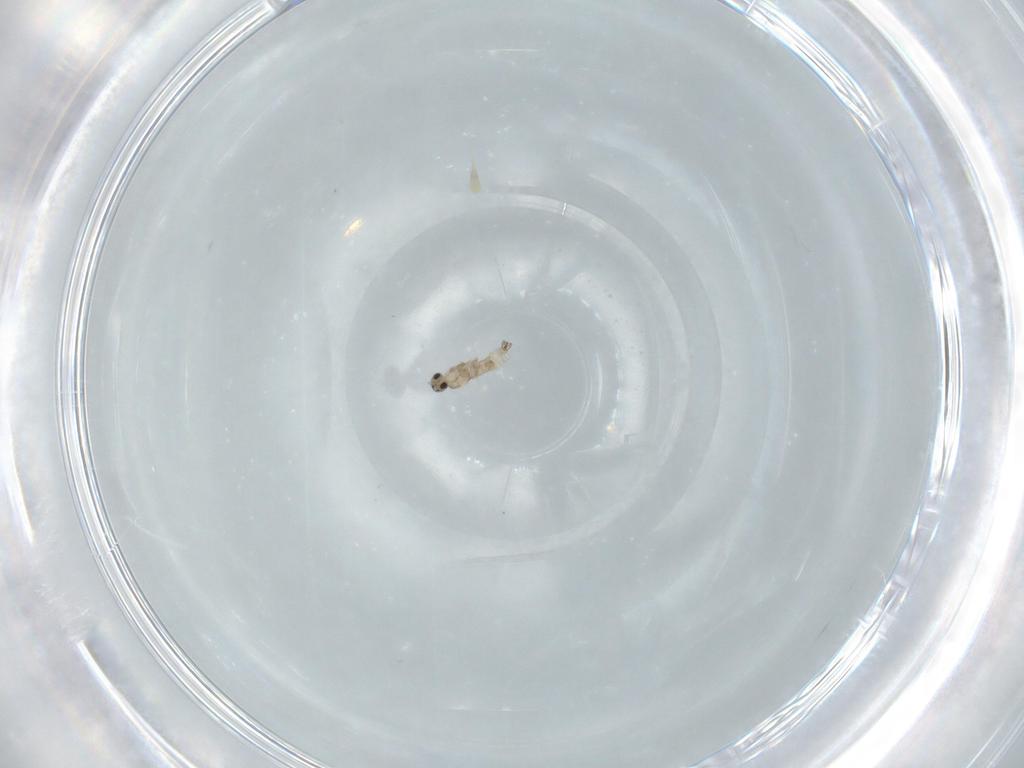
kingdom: Animalia
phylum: Arthropoda
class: Insecta
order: Diptera
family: Cecidomyiidae
